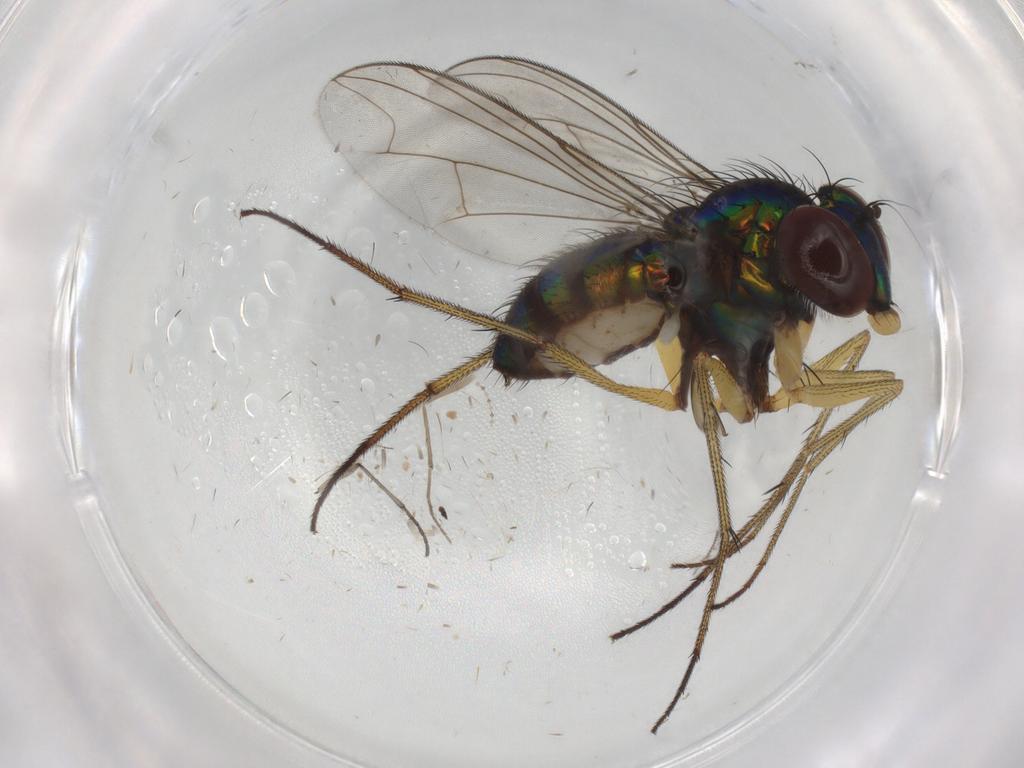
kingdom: Animalia
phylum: Arthropoda
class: Insecta
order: Diptera
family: Dolichopodidae
